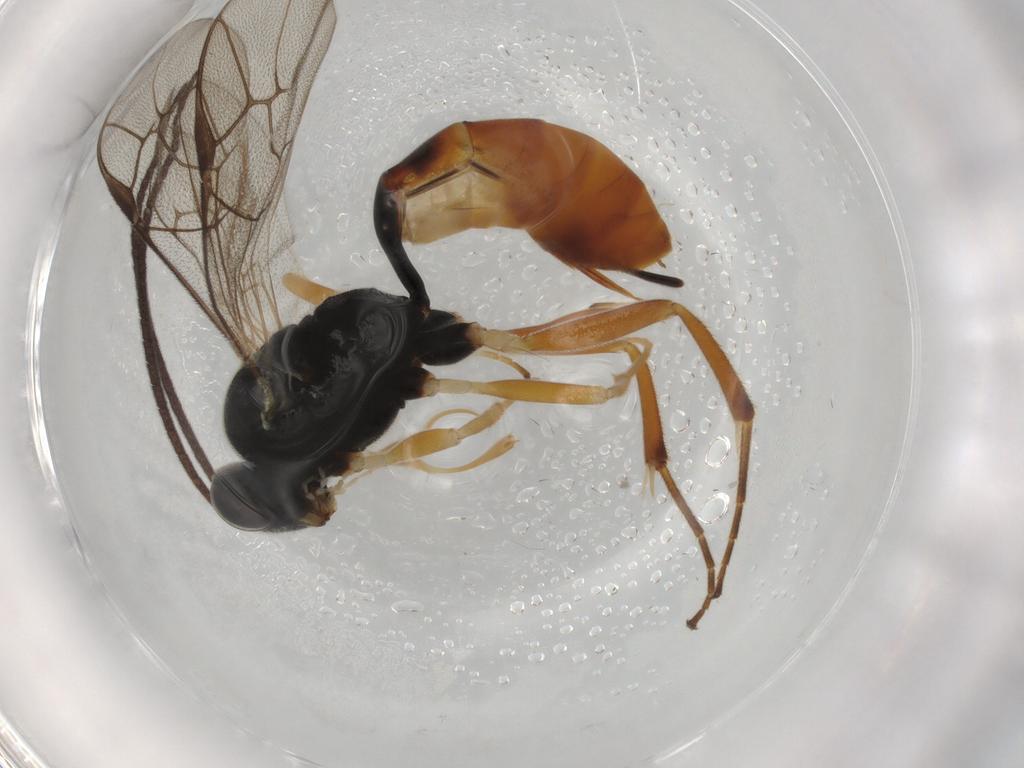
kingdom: Animalia
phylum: Arthropoda
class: Insecta
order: Hymenoptera
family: Ichneumonidae
